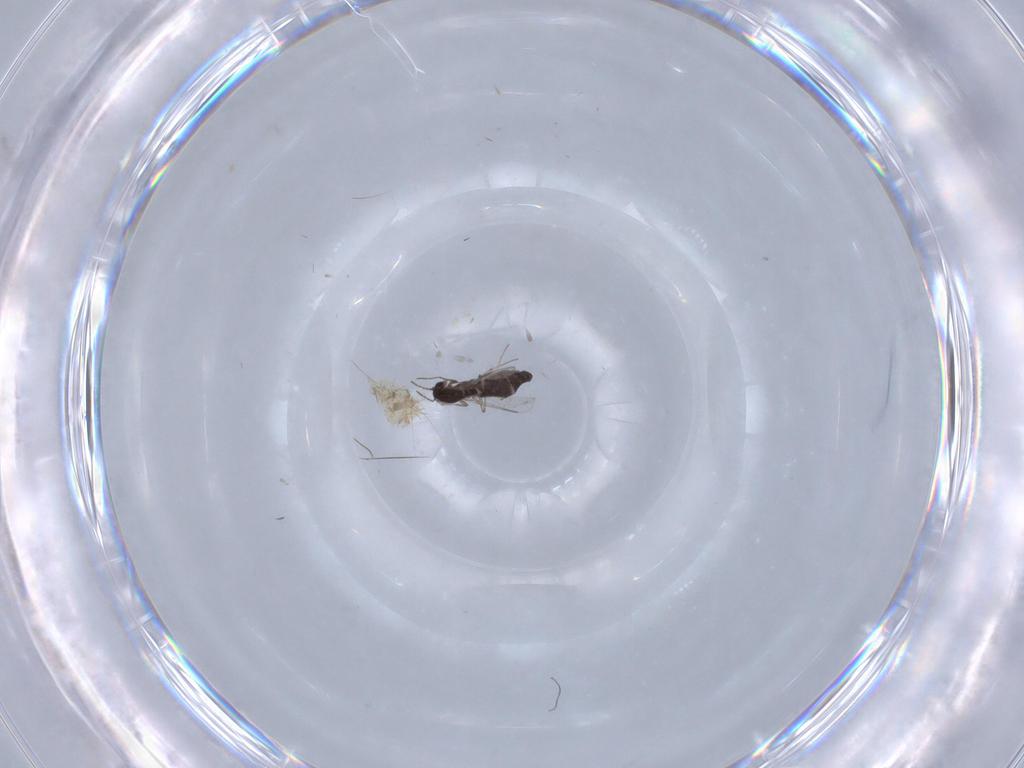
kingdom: Animalia
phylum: Arthropoda
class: Insecta
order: Diptera
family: Chironomidae
